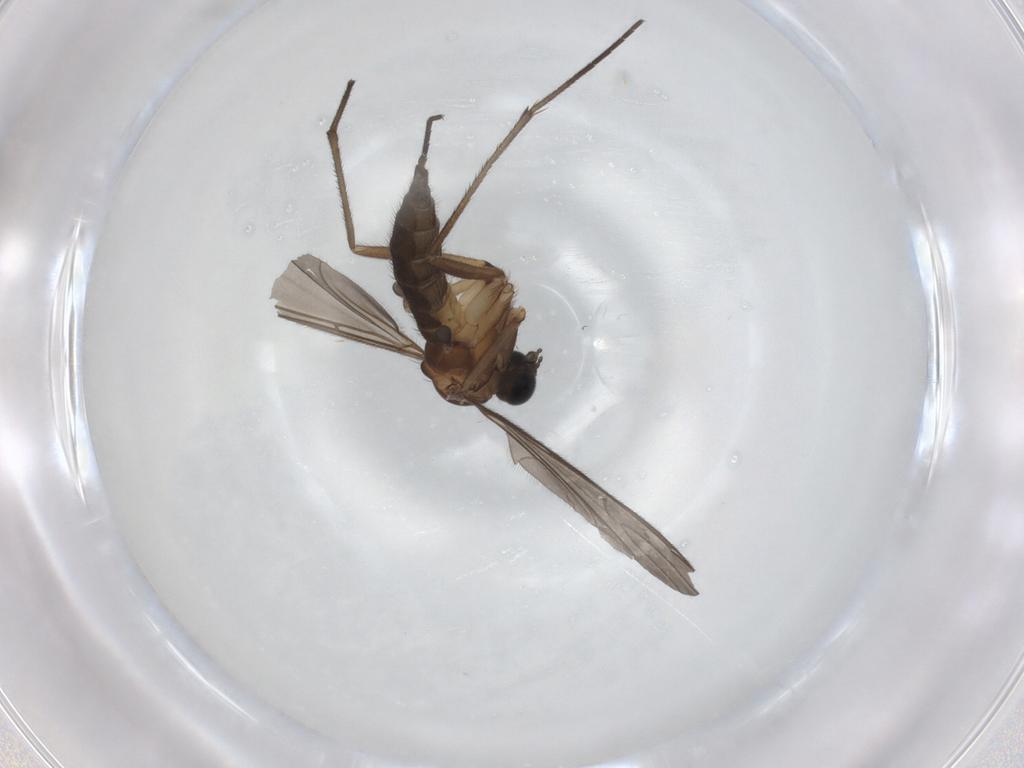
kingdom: Animalia
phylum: Arthropoda
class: Insecta
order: Diptera
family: Sciaridae
